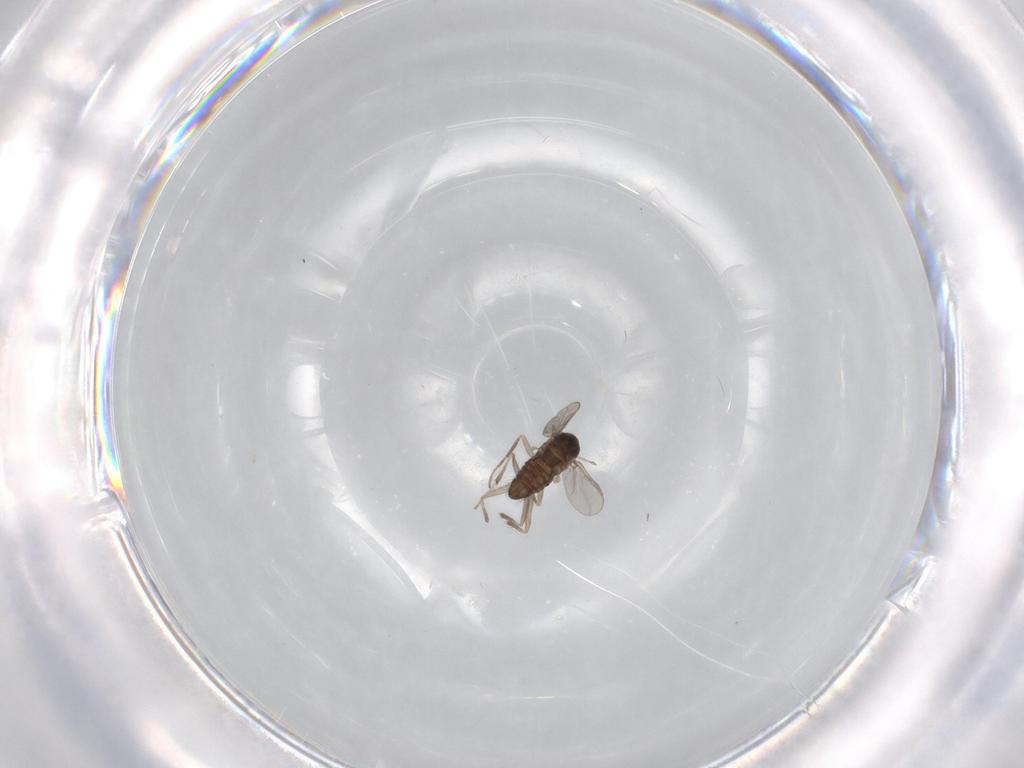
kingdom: Animalia
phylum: Arthropoda
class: Insecta
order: Diptera
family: Chironomidae
